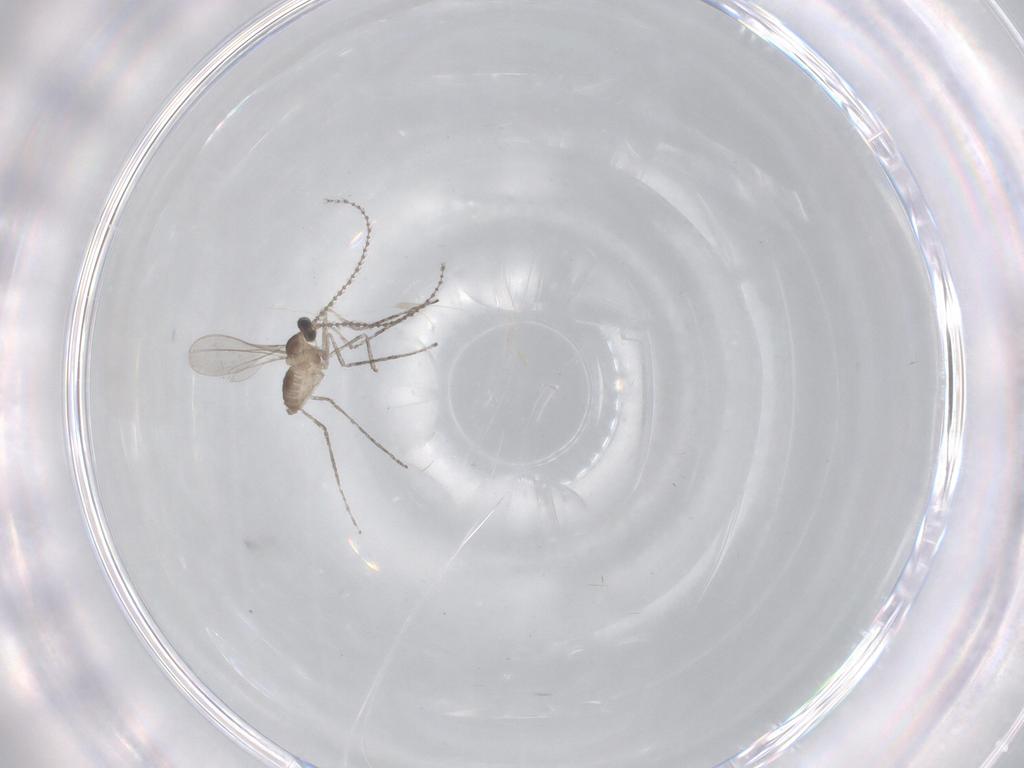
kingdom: Animalia
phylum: Arthropoda
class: Insecta
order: Diptera
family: Cecidomyiidae
